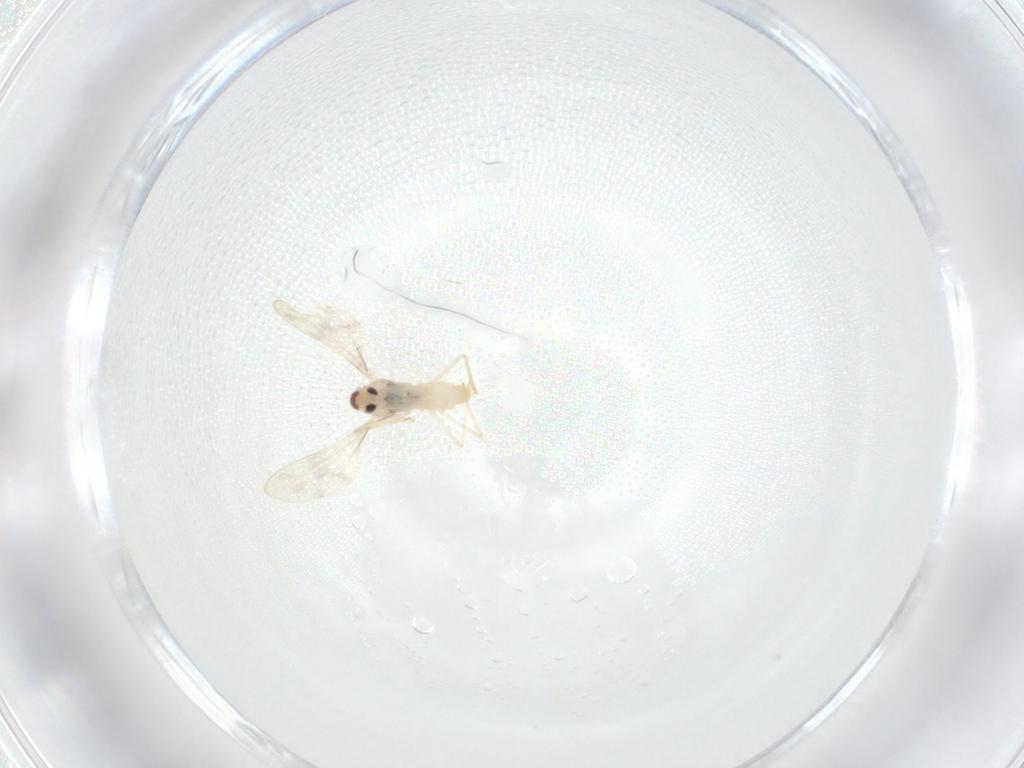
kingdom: Animalia
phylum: Arthropoda
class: Insecta
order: Diptera
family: Cecidomyiidae
